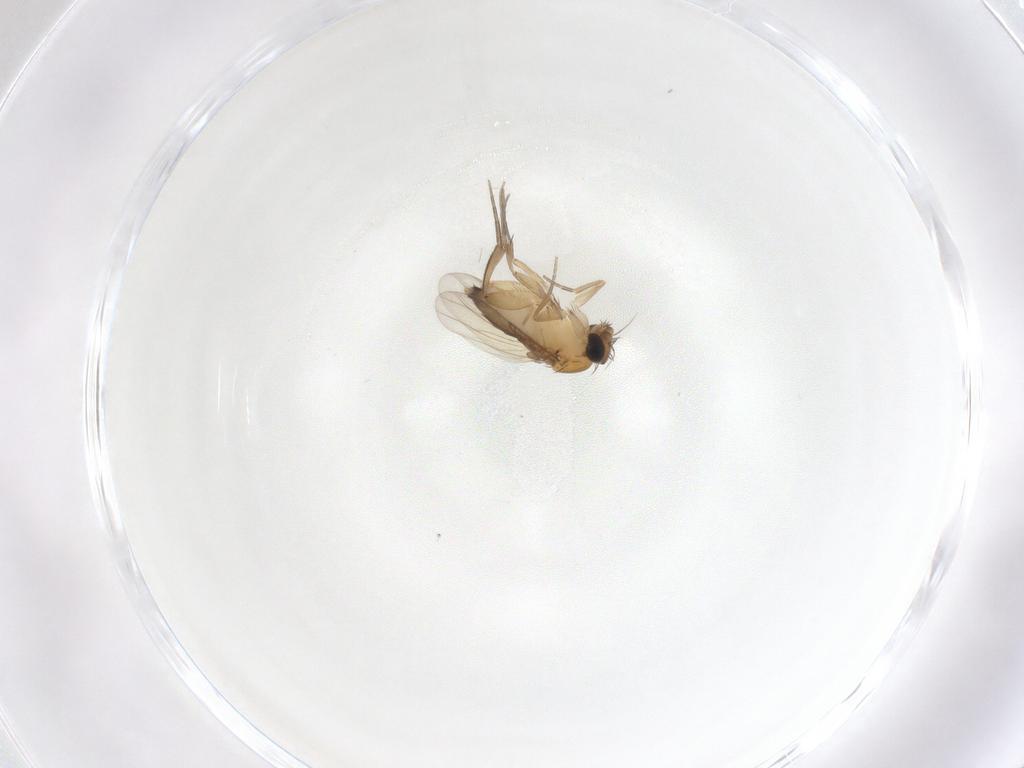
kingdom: Animalia
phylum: Arthropoda
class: Insecta
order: Diptera
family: Phoridae
